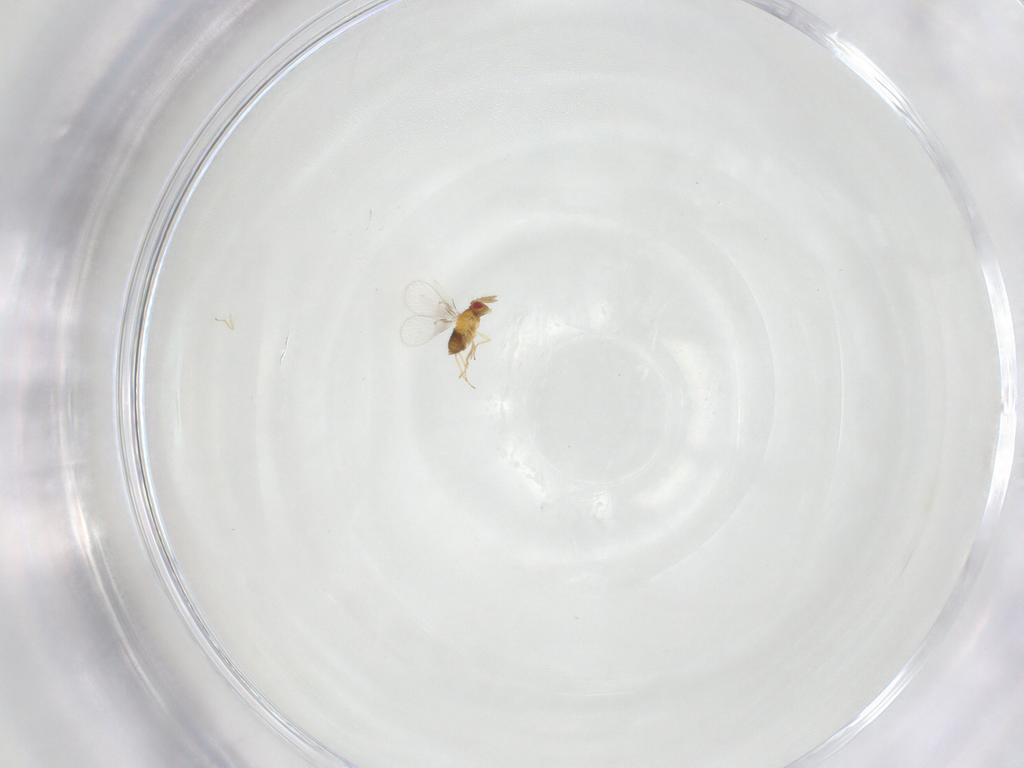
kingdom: Animalia
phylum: Arthropoda
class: Insecta
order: Hymenoptera
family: Trichogrammatidae
